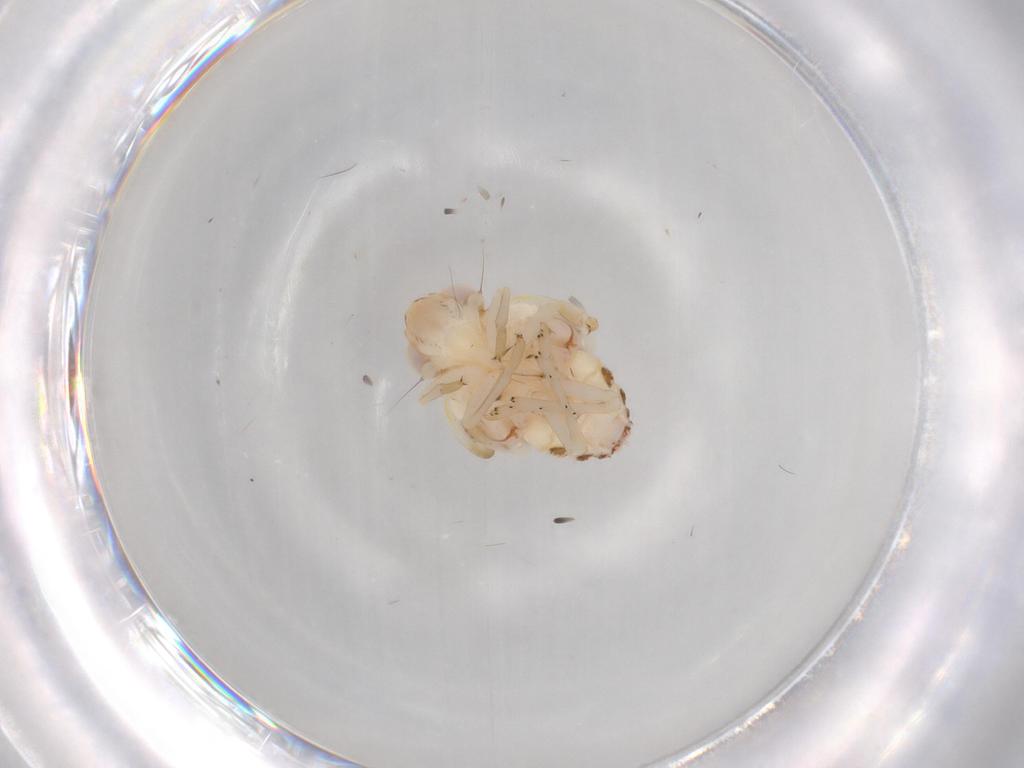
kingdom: Animalia
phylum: Arthropoda
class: Insecta
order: Hemiptera
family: Nogodinidae
